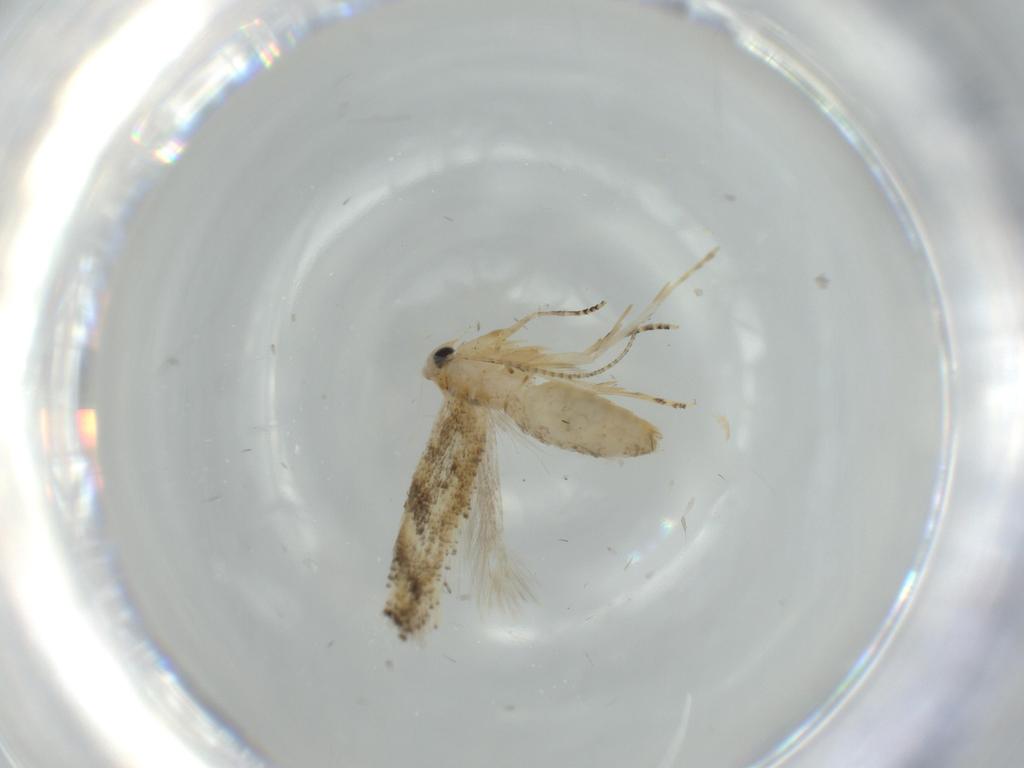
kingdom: Animalia
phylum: Arthropoda
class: Insecta
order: Lepidoptera
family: Bucculatricidae
